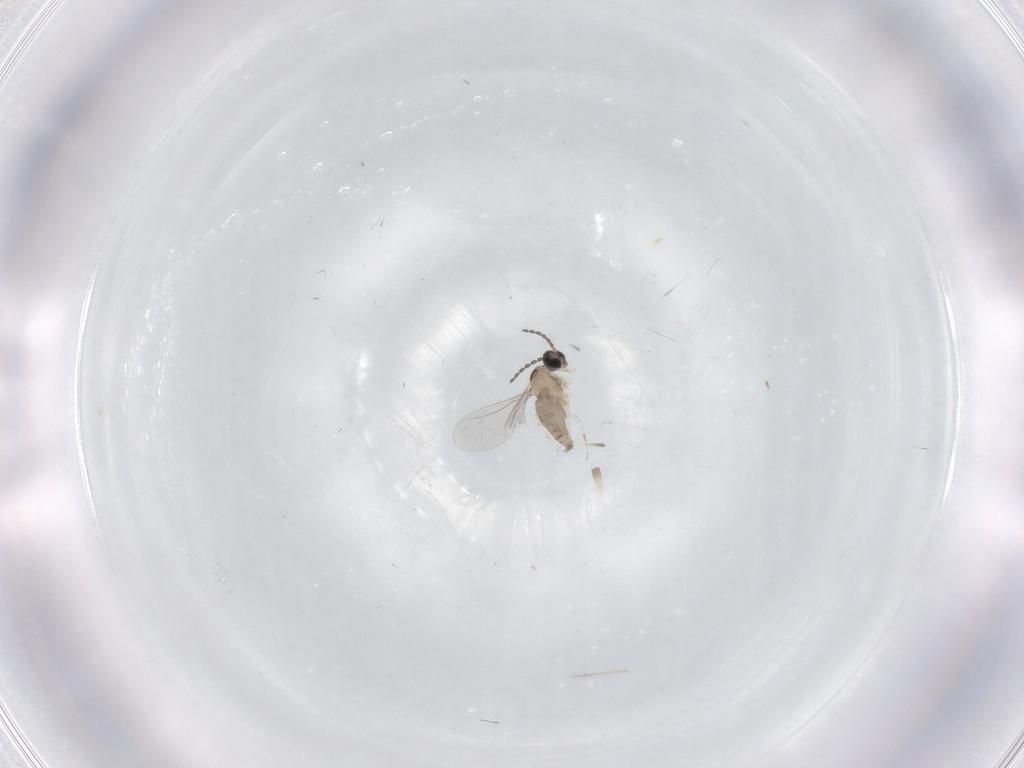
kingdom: Animalia
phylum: Arthropoda
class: Insecta
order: Diptera
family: Psychodidae
